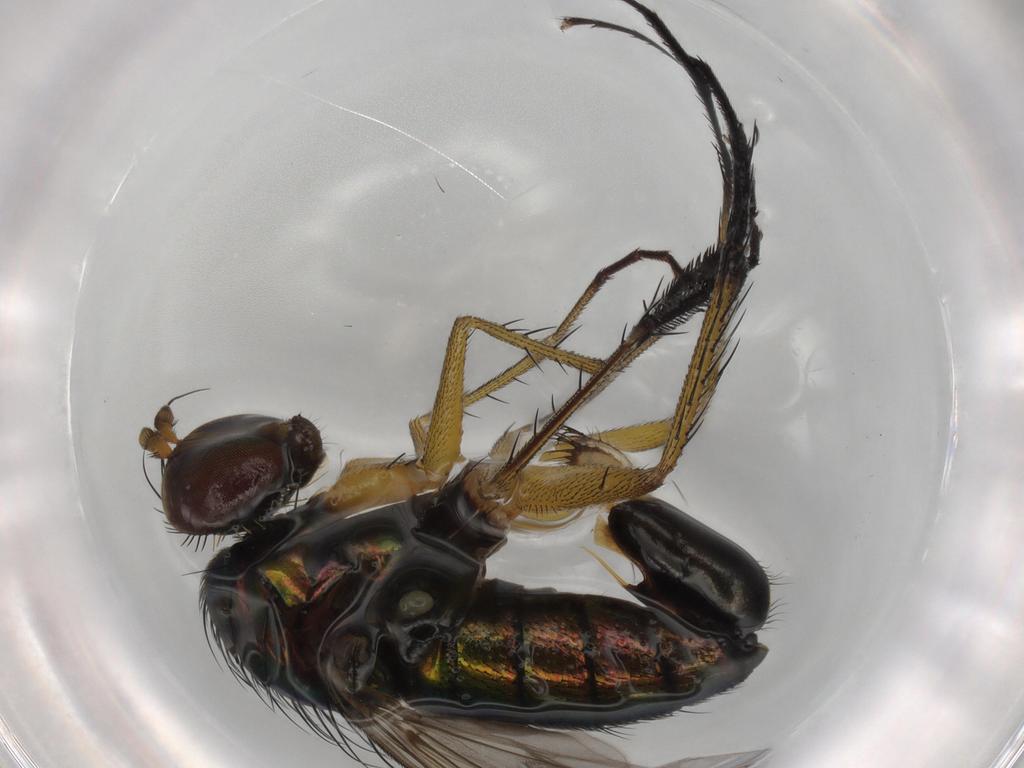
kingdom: Animalia
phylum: Arthropoda
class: Insecta
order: Diptera
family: Dolichopodidae
